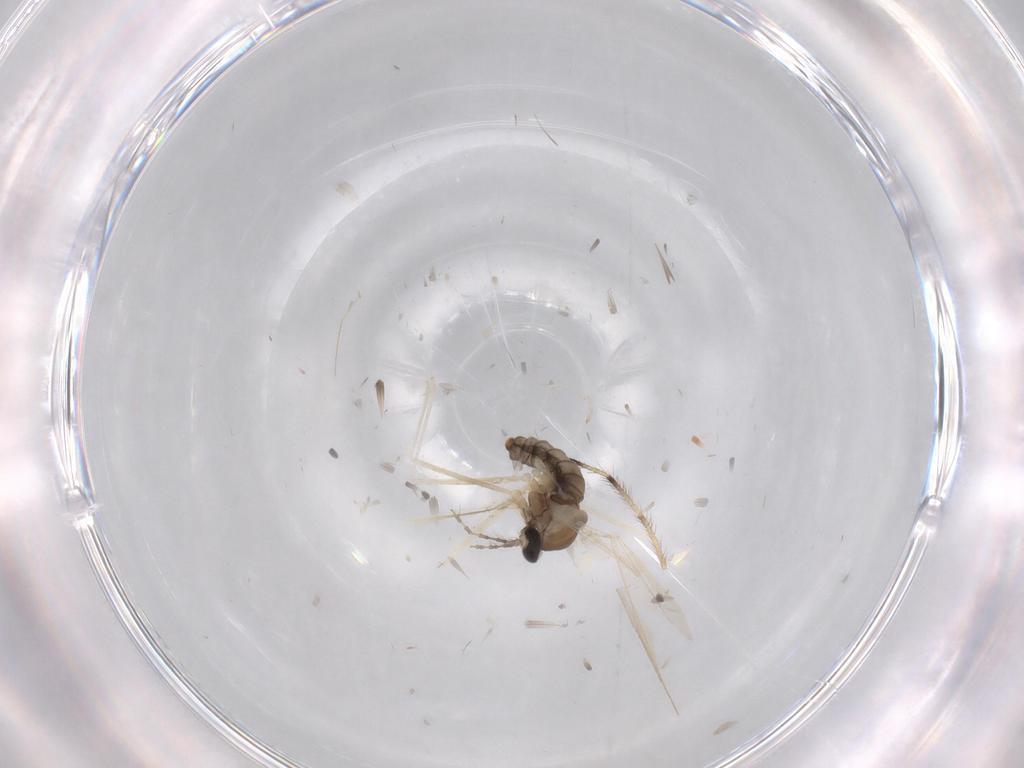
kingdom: Animalia
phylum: Arthropoda
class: Insecta
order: Diptera
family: Cecidomyiidae
